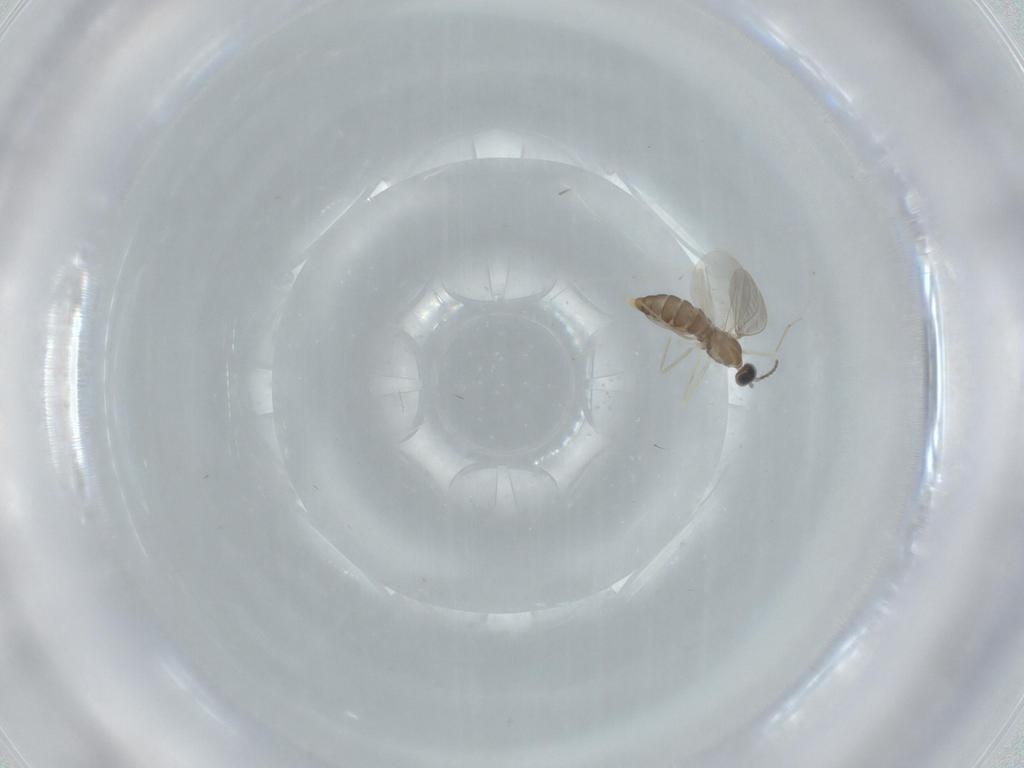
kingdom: Animalia
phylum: Arthropoda
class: Insecta
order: Diptera
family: Cecidomyiidae
